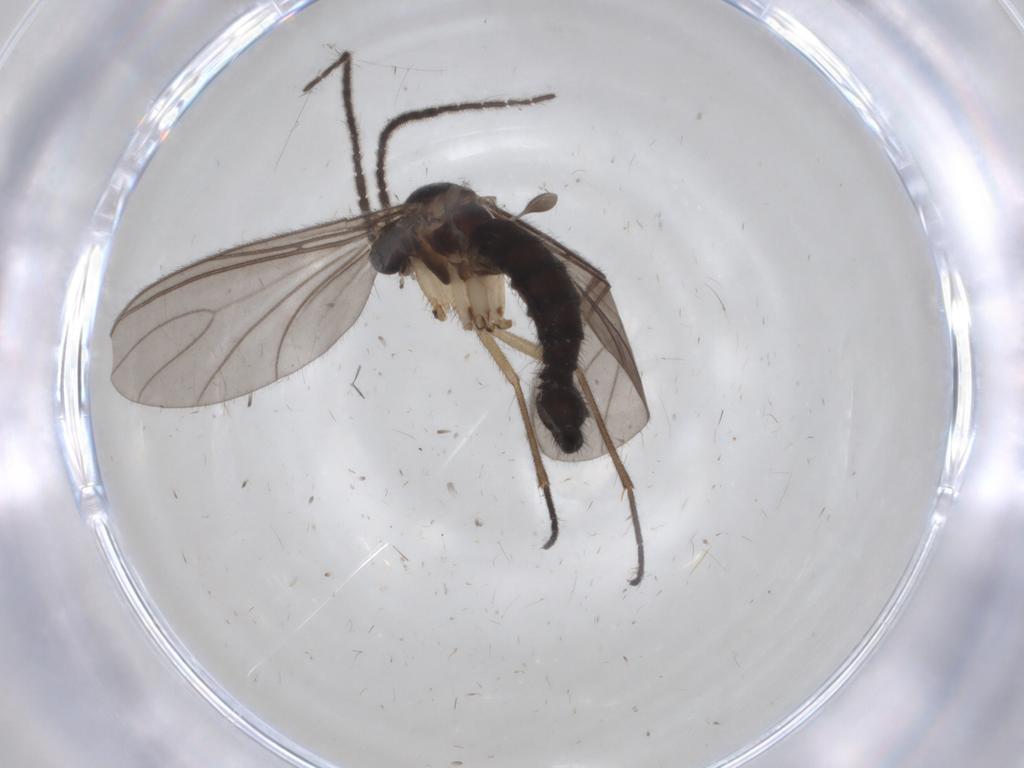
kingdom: Animalia
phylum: Arthropoda
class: Insecta
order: Diptera
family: Sciaridae
